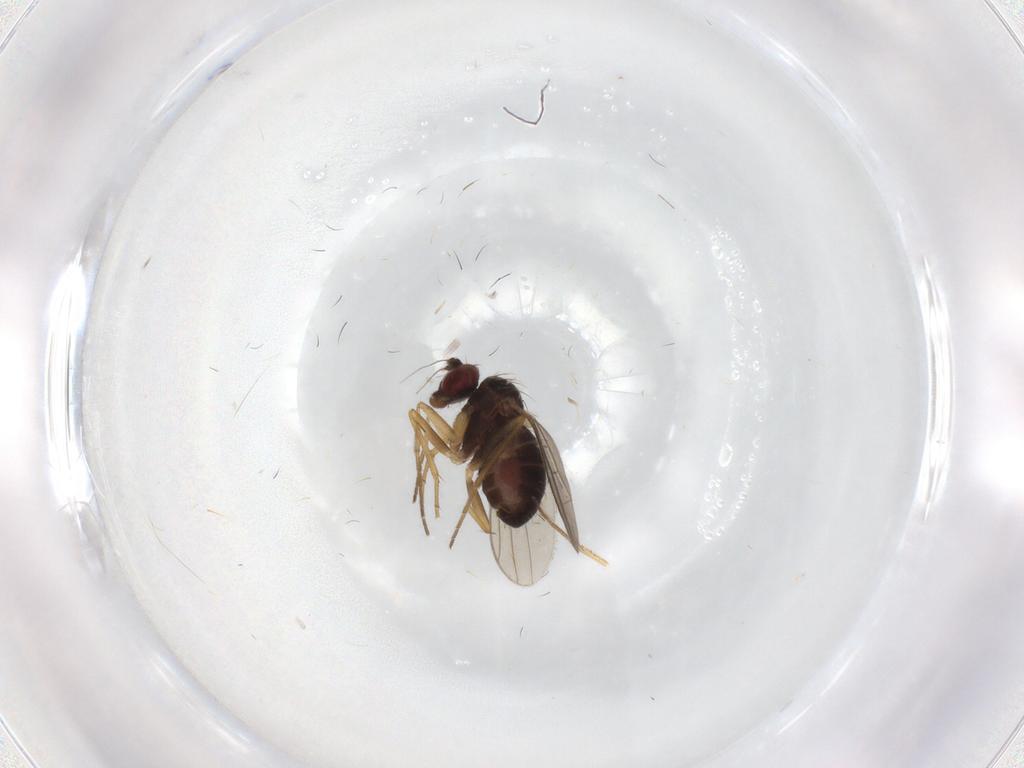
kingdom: Animalia
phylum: Arthropoda
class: Insecta
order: Diptera
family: Dolichopodidae
